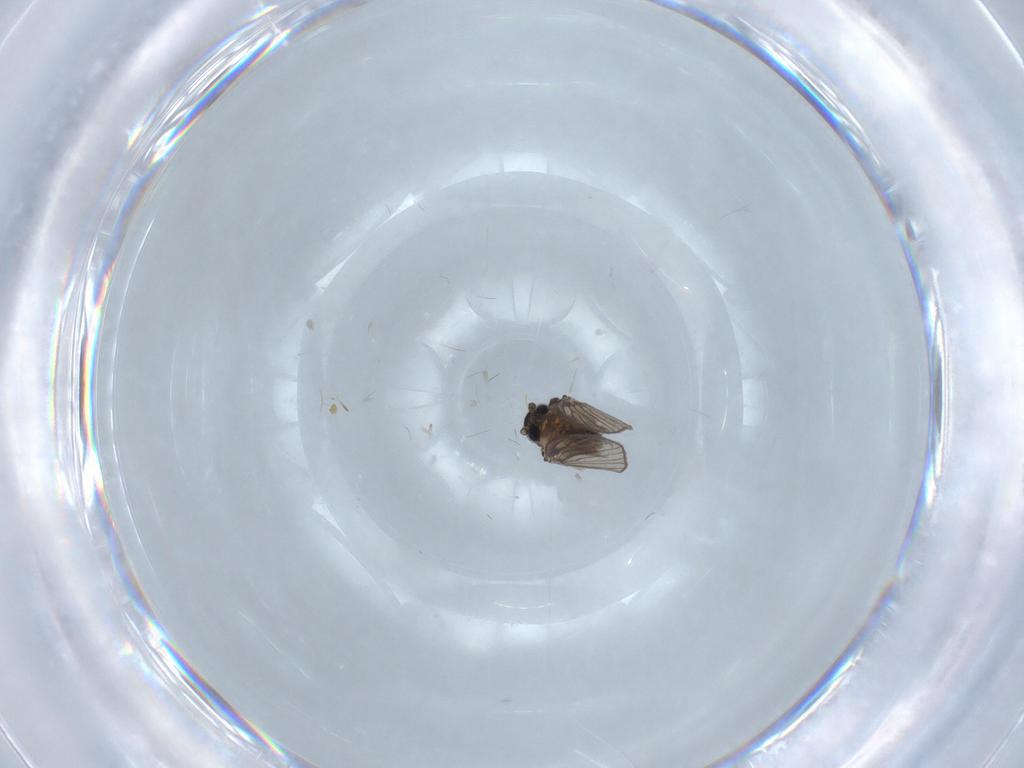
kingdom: Animalia
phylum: Arthropoda
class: Insecta
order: Diptera
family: Psychodidae
